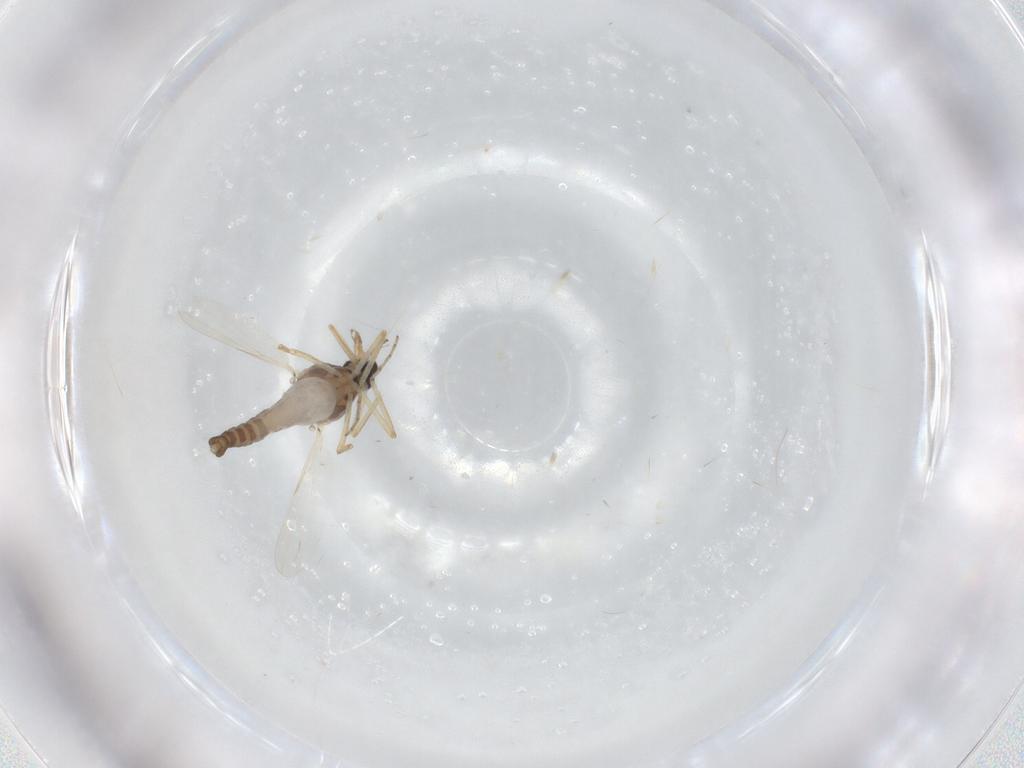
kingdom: Animalia
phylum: Arthropoda
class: Insecta
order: Diptera
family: Ceratopogonidae
